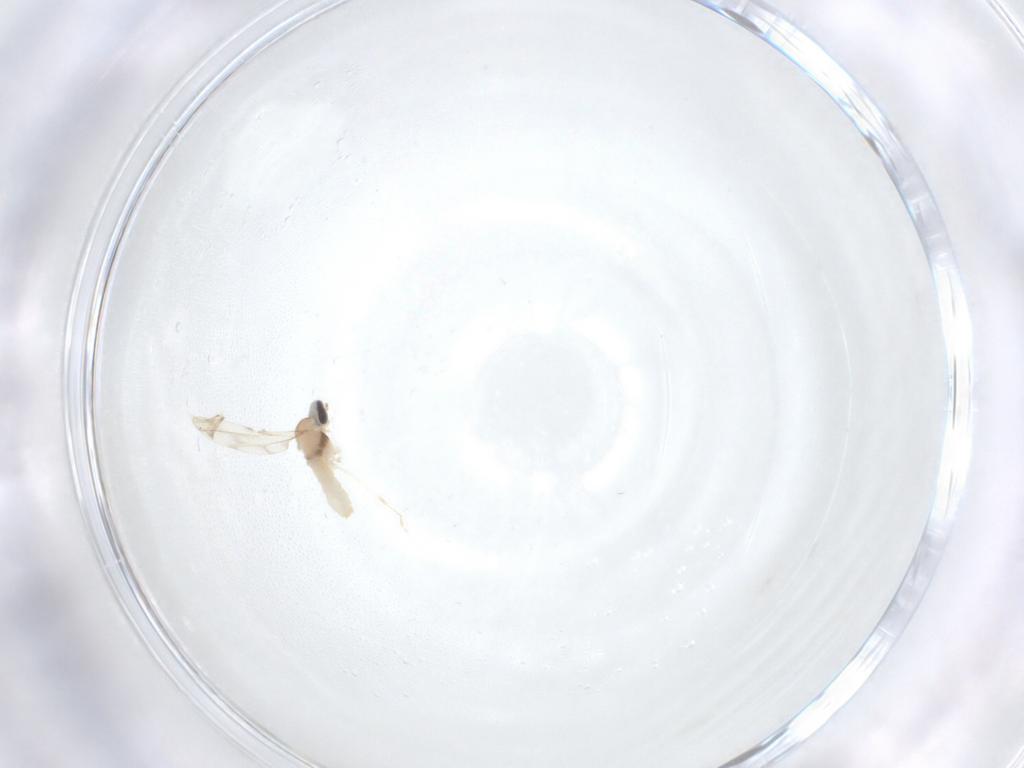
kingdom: Animalia
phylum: Arthropoda
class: Insecta
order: Diptera
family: Cecidomyiidae
